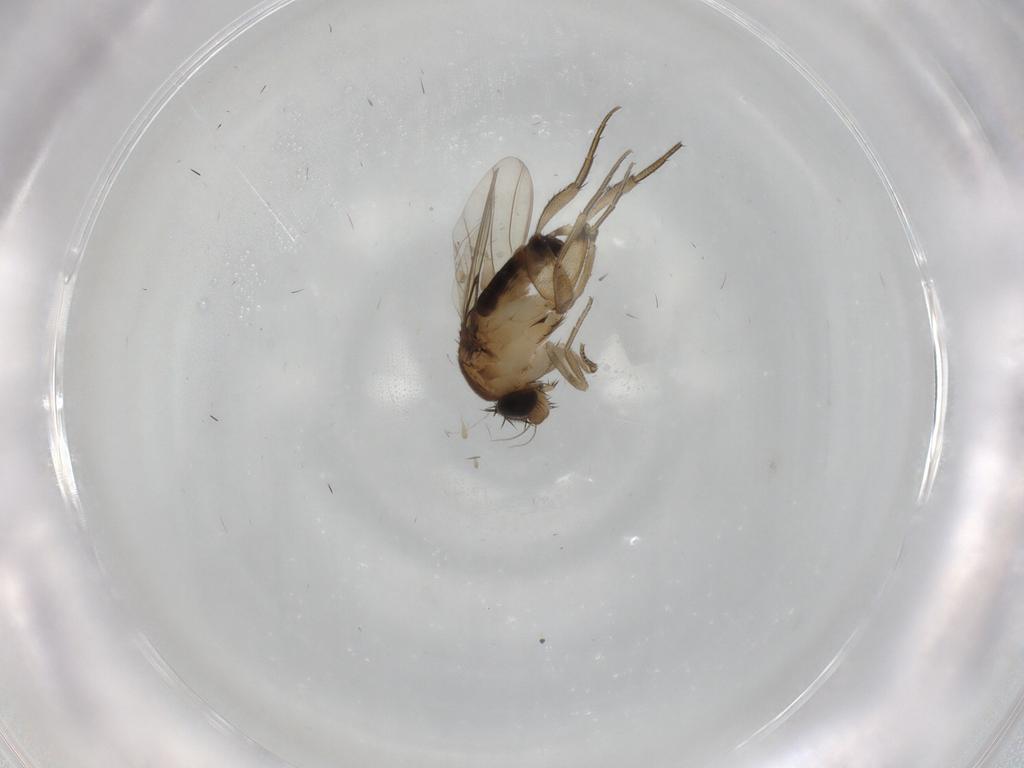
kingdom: Animalia
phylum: Arthropoda
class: Insecta
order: Diptera
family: Phoridae
